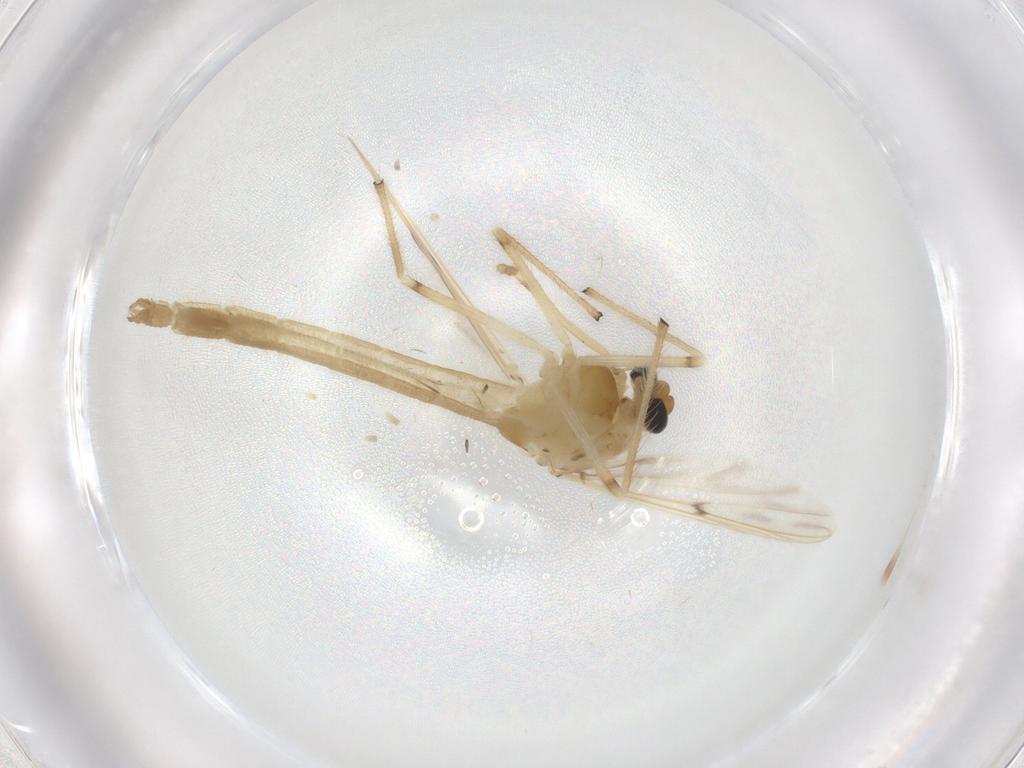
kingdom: Animalia
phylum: Arthropoda
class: Insecta
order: Diptera
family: Chironomidae
